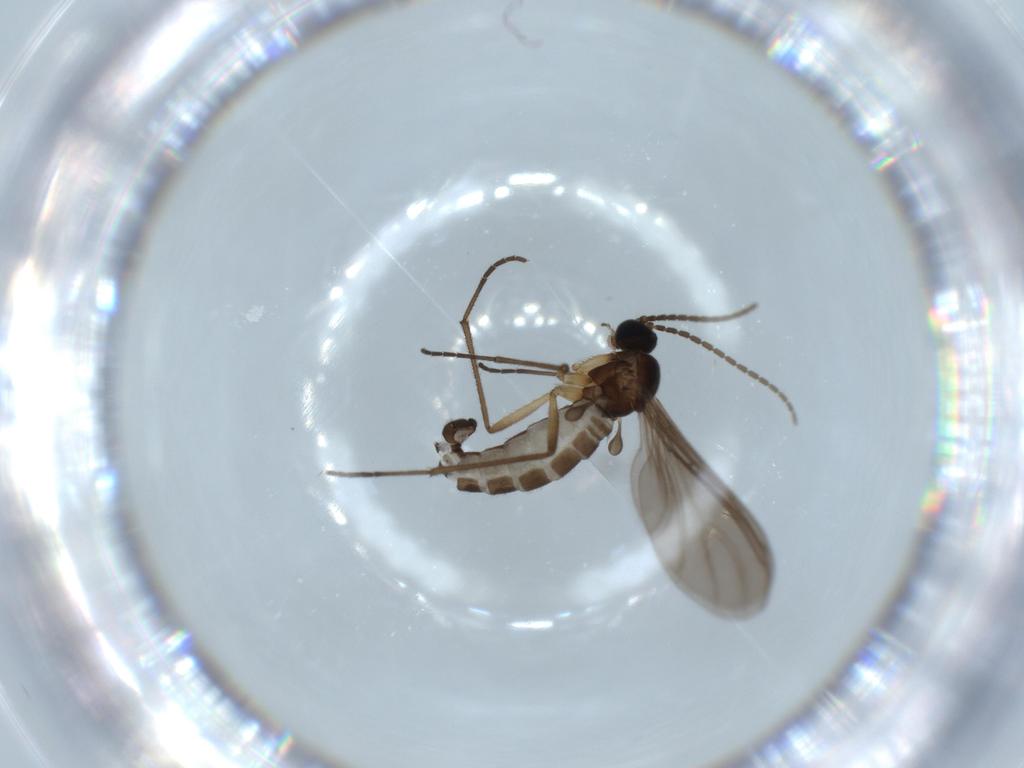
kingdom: Animalia
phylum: Arthropoda
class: Insecta
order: Diptera
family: Sciaridae
